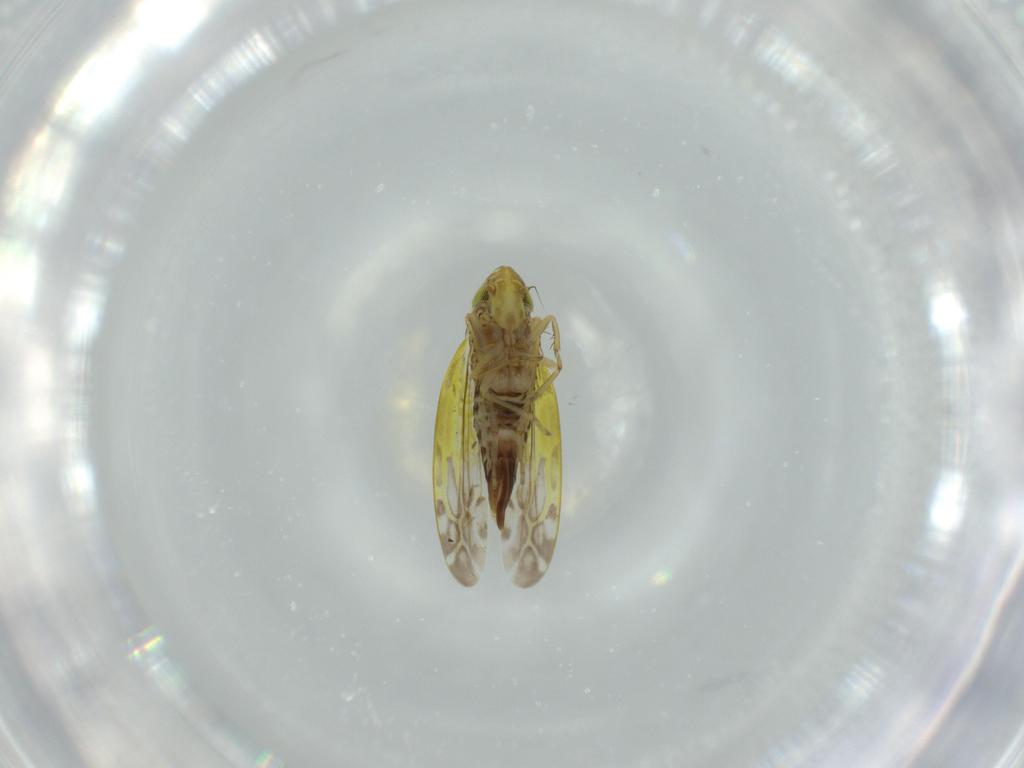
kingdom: Animalia
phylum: Arthropoda
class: Insecta
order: Hemiptera
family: Cicadellidae
